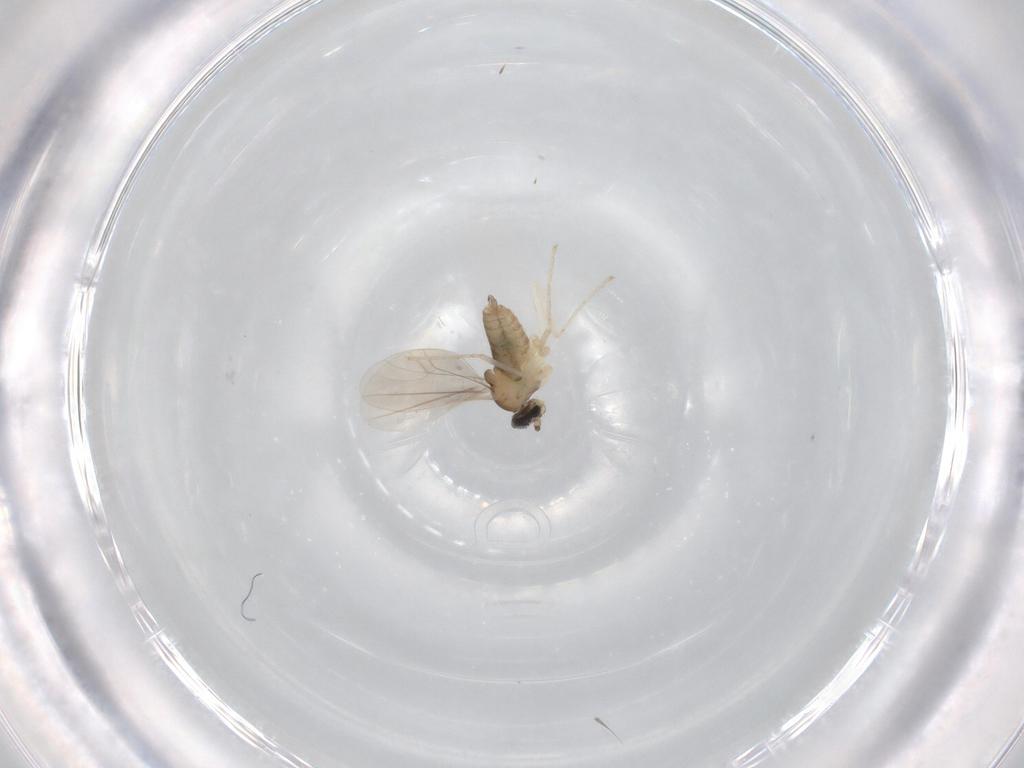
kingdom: Animalia
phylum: Arthropoda
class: Insecta
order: Diptera
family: Cecidomyiidae
